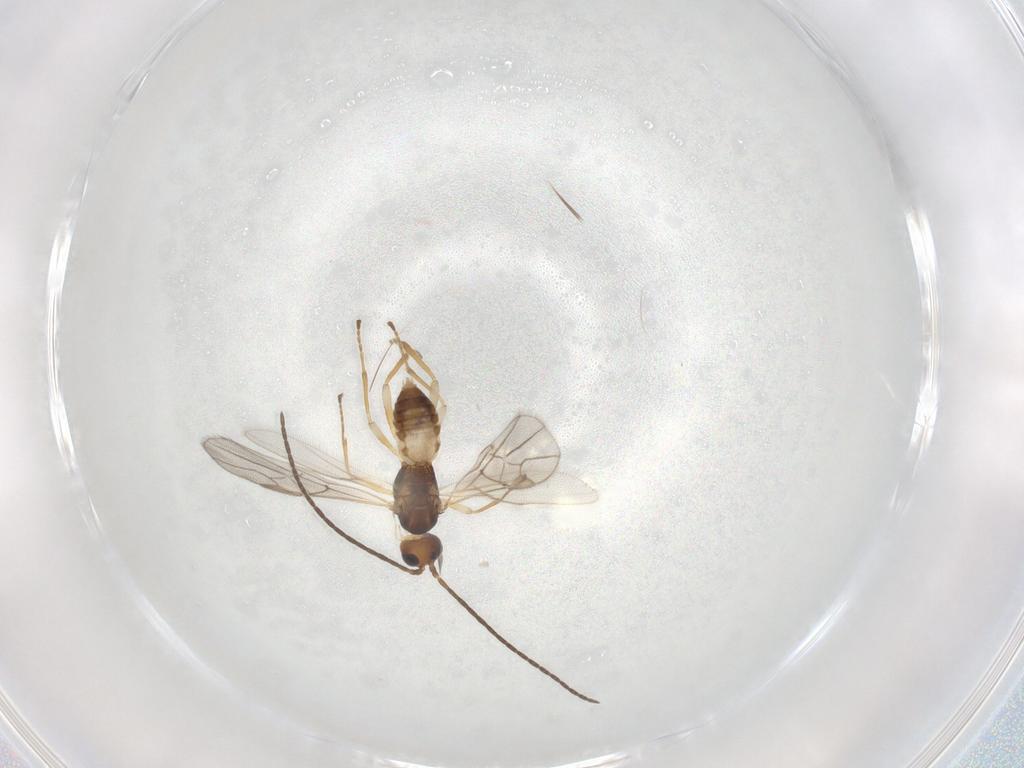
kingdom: Animalia
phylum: Arthropoda
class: Insecta
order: Hymenoptera
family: Braconidae
